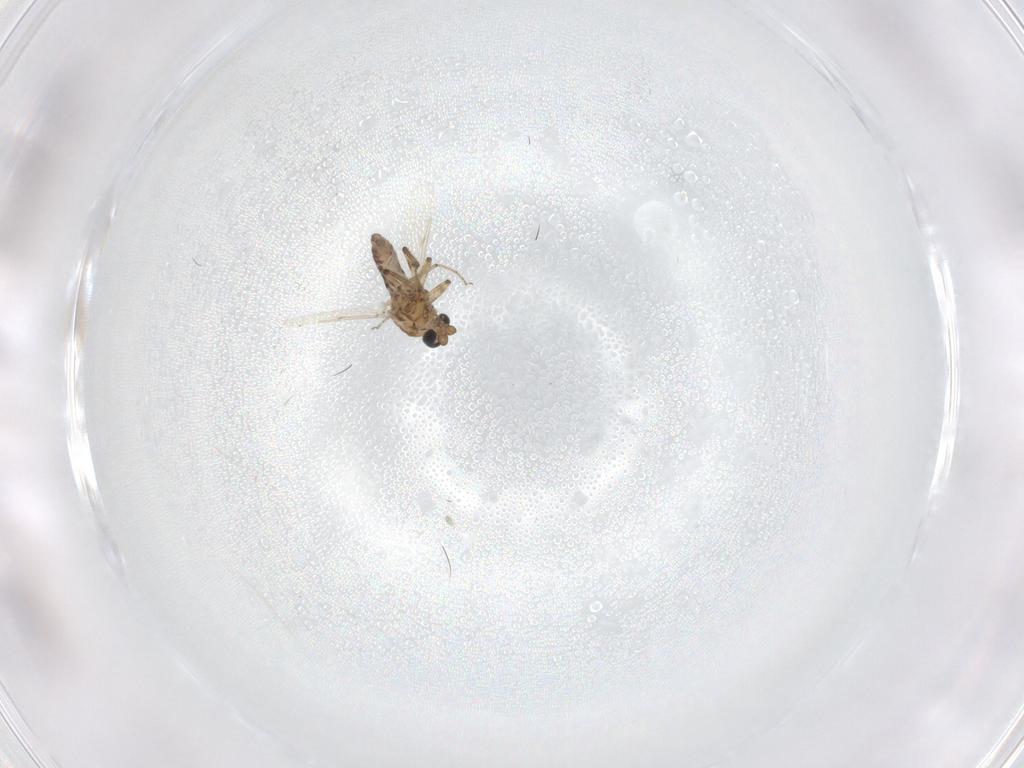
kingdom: Animalia
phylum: Arthropoda
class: Insecta
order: Diptera
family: Ceratopogonidae
